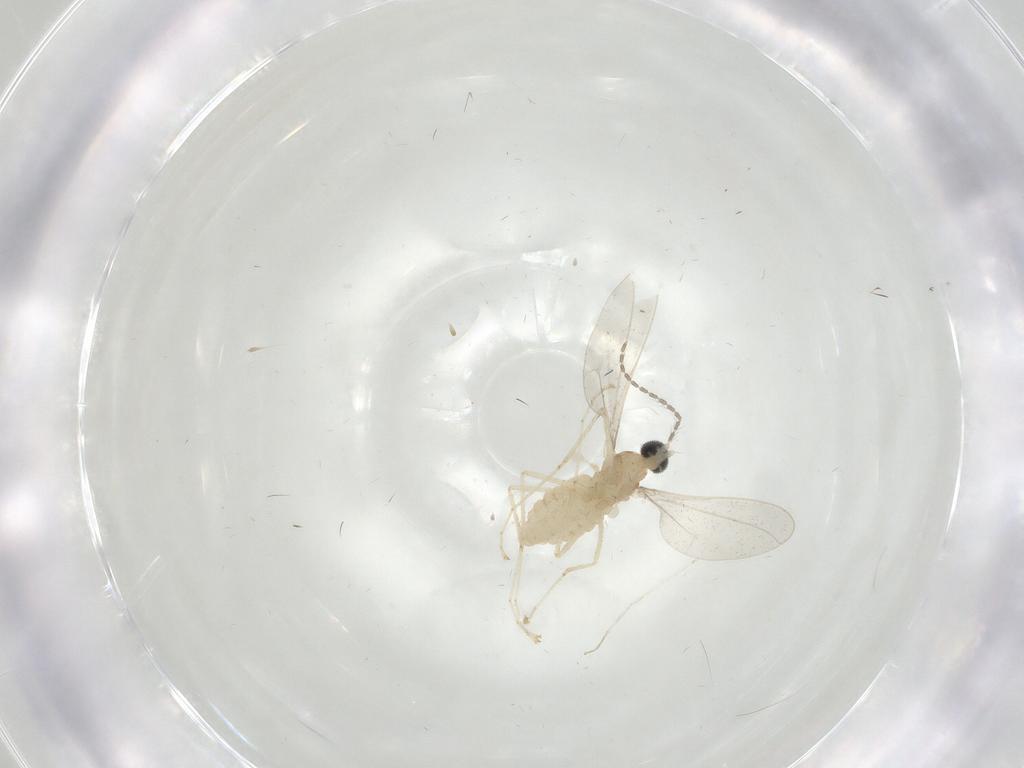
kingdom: Animalia
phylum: Arthropoda
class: Insecta
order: Diptera
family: Cecidomyiidae
